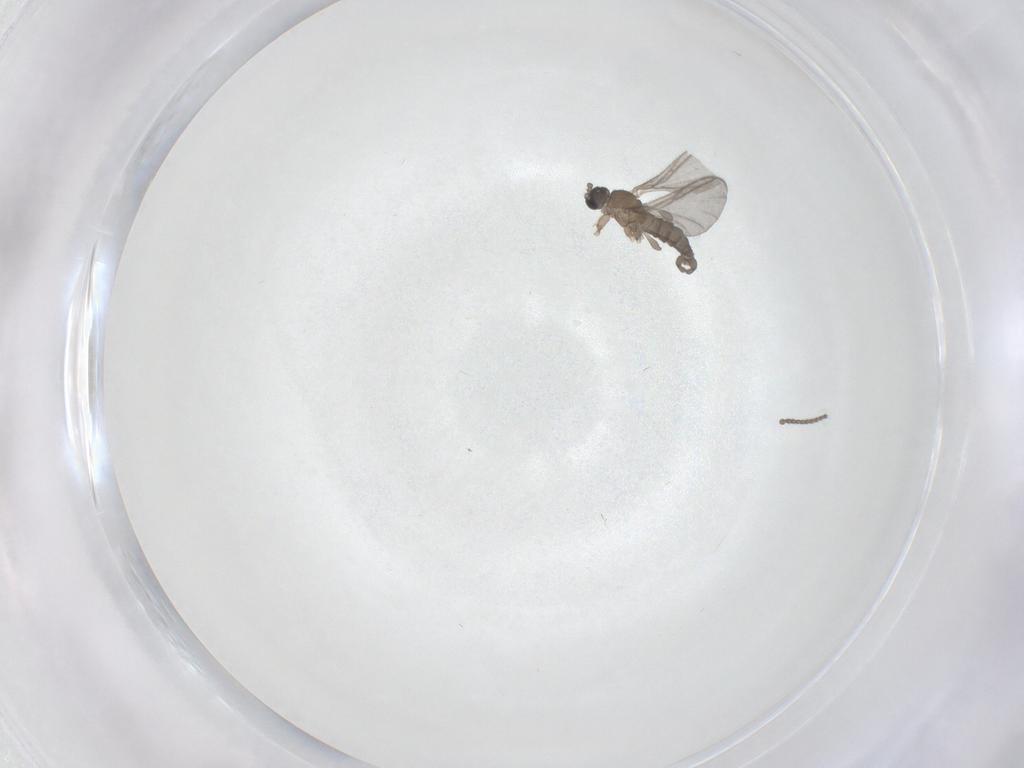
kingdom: Animalia
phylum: Arthropoda
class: Insecta
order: Diptera
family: Sciaridae
